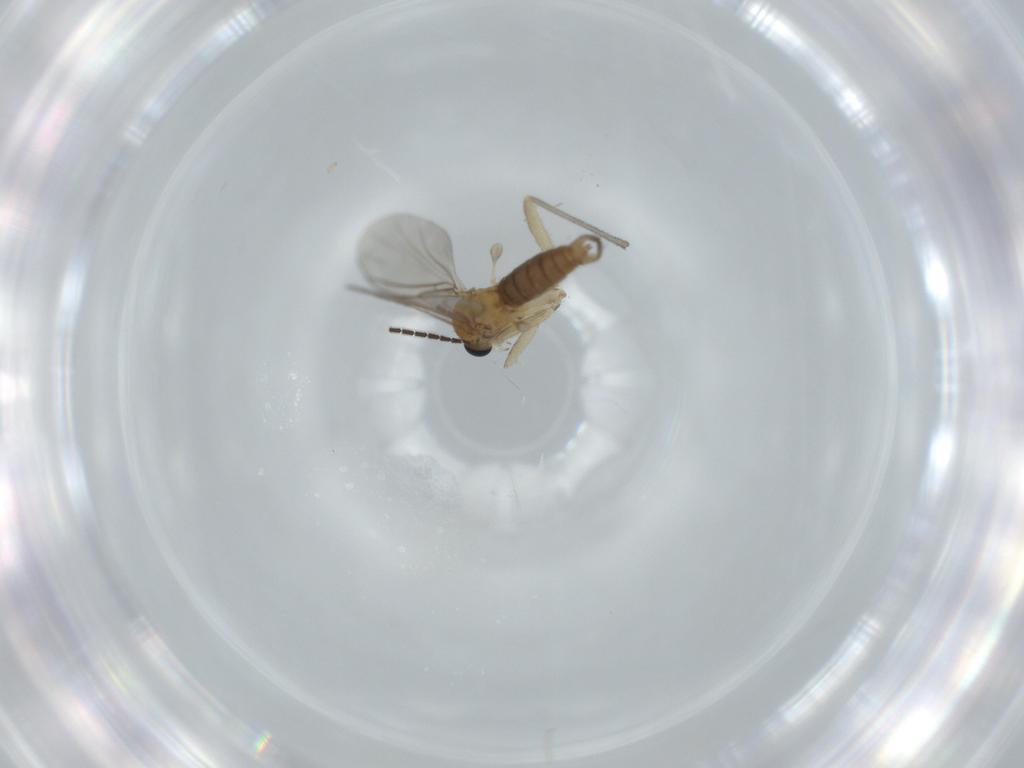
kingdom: Animalia
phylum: Arthropoda
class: Insecta
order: Diptera
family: Sciaridae
